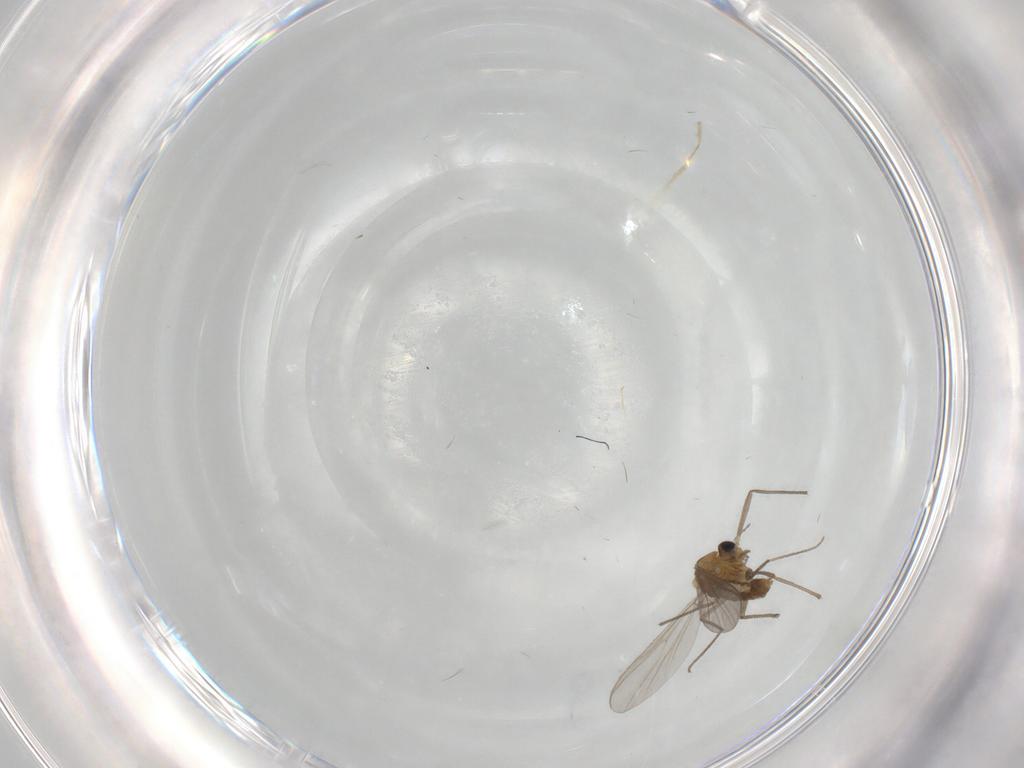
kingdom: Animalia
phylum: Arthropoda
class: Insecta
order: Diptera
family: Chironomidae
